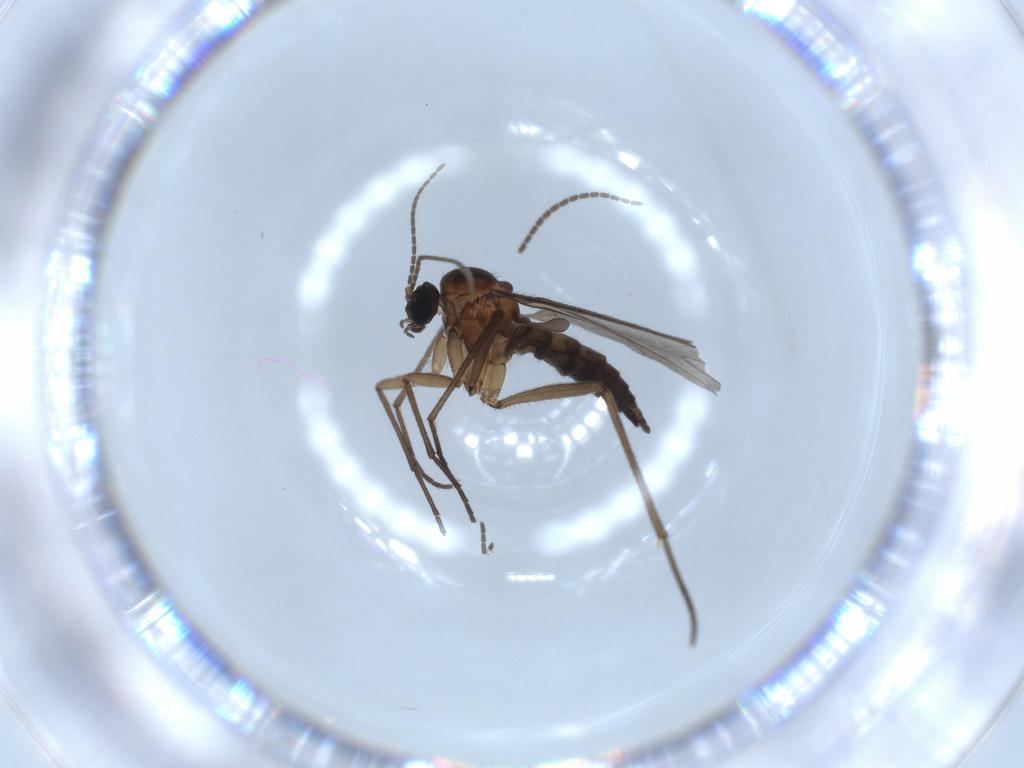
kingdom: Animalia
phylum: Arthropoda
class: Insecta
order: Diptera
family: Sciaridae
